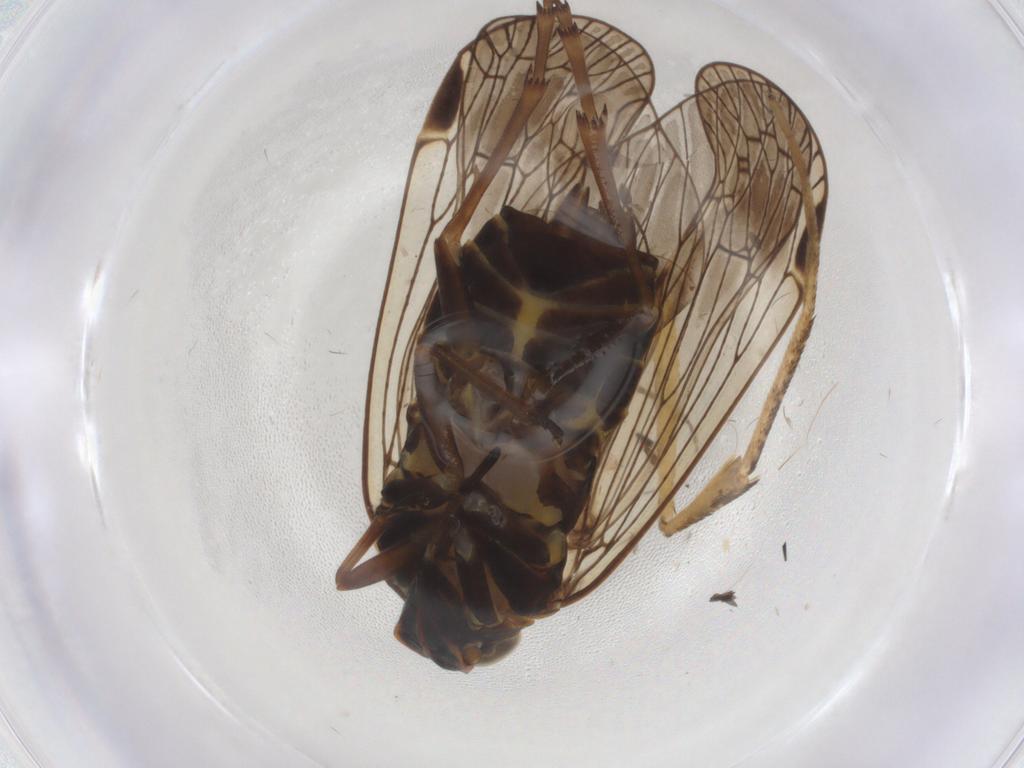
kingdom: Animalia
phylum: Arthropoda
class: Insecta
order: Hemiptera
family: Cixiidae
